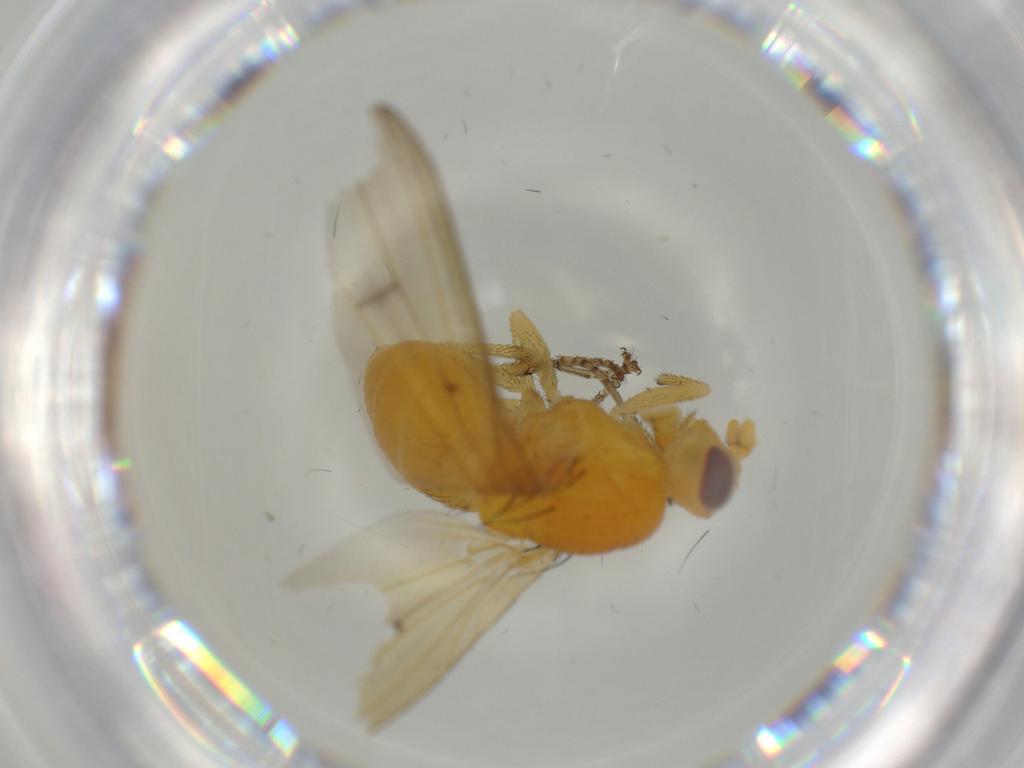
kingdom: Animalia
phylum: Arthropoda
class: Insecta
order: Diptera
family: Lauxaniidae
